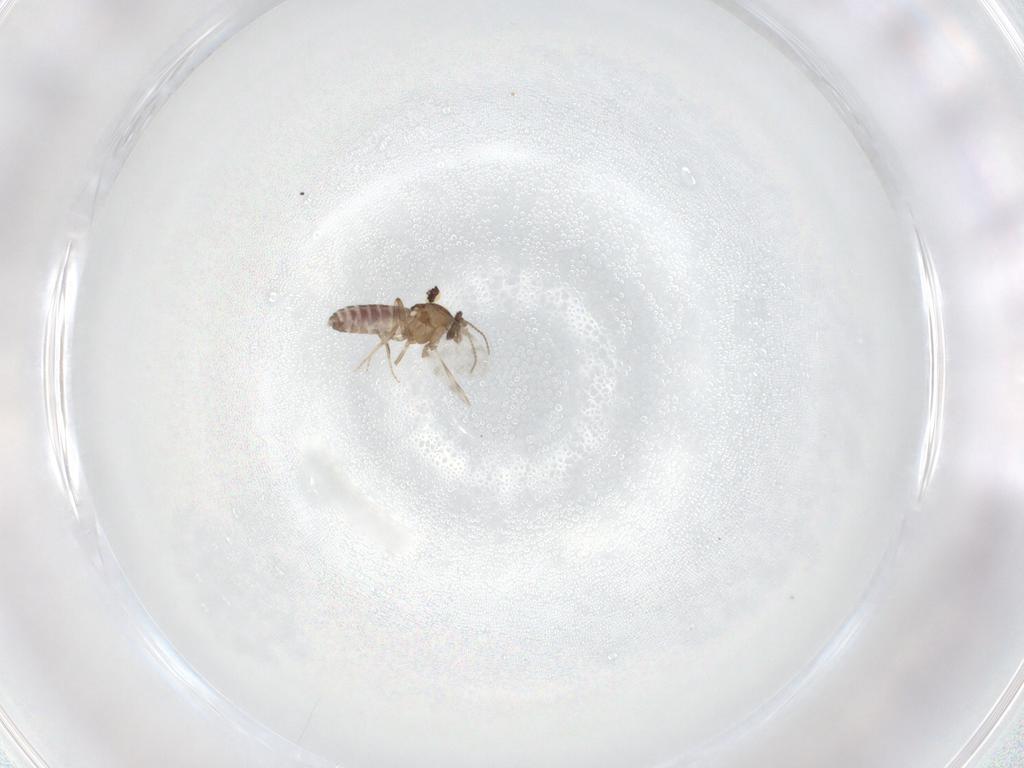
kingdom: Animalia
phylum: Arthropoda
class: Insecta
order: Diptera
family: Ceratopogonidae
